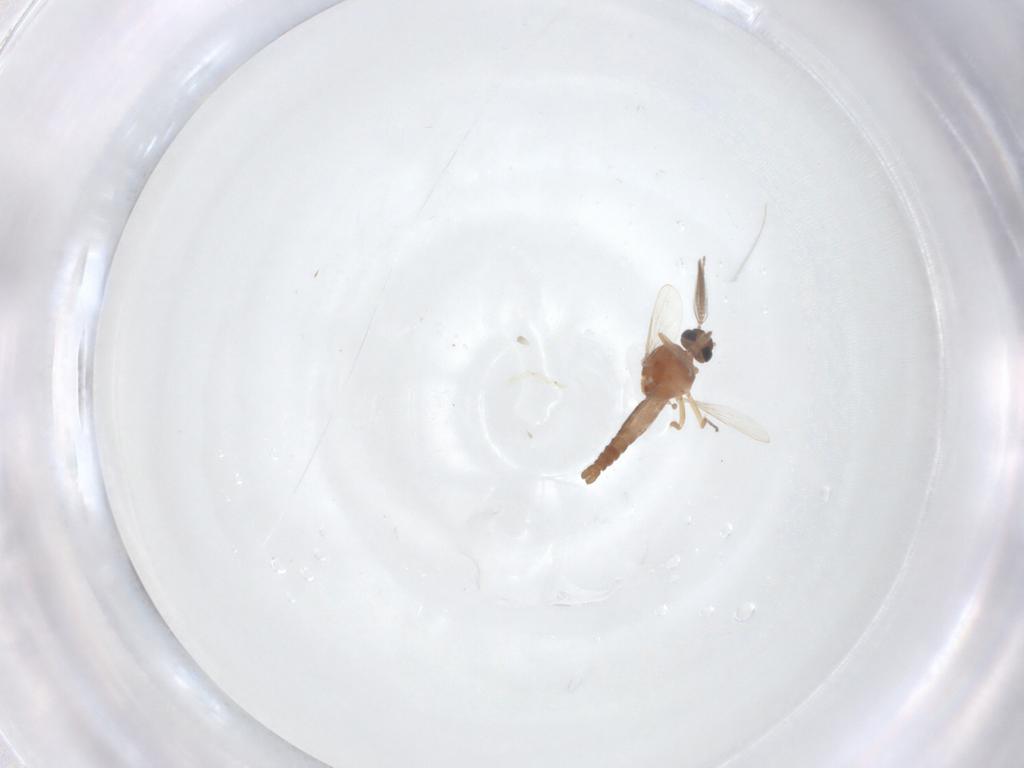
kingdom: Animalia
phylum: Arthropoda
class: Insecta
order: Diptera
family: Ceratopogonidae
